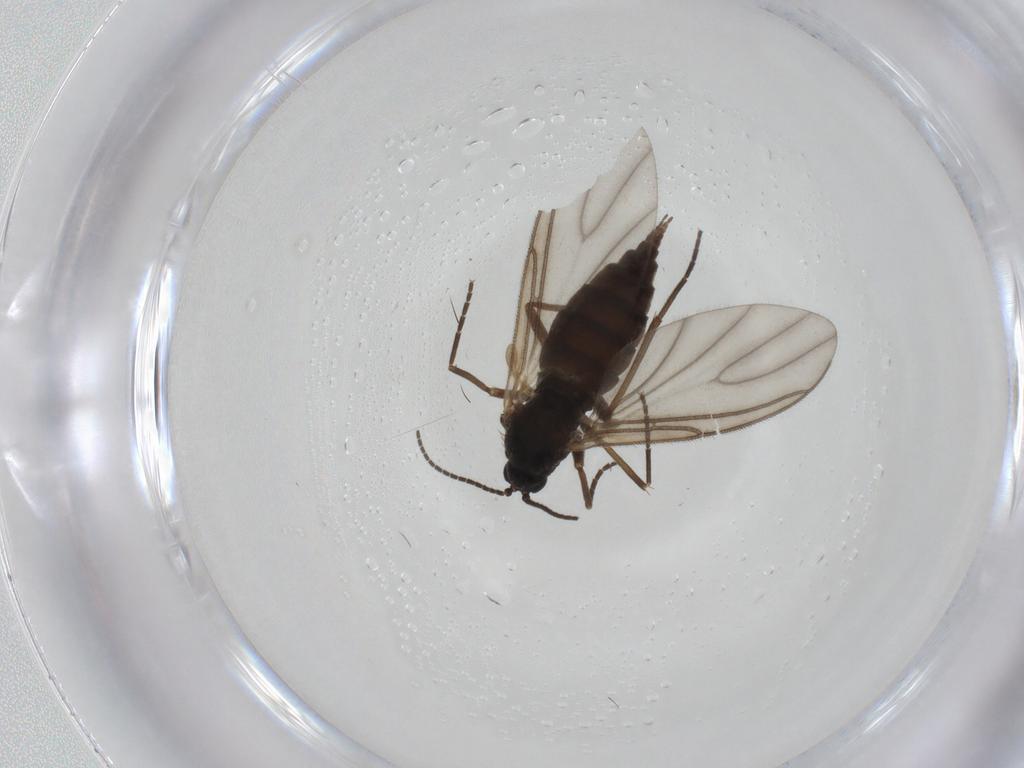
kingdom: Animalia
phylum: Arthropoda
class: Insecta
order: Diptera
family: Sciaridae
